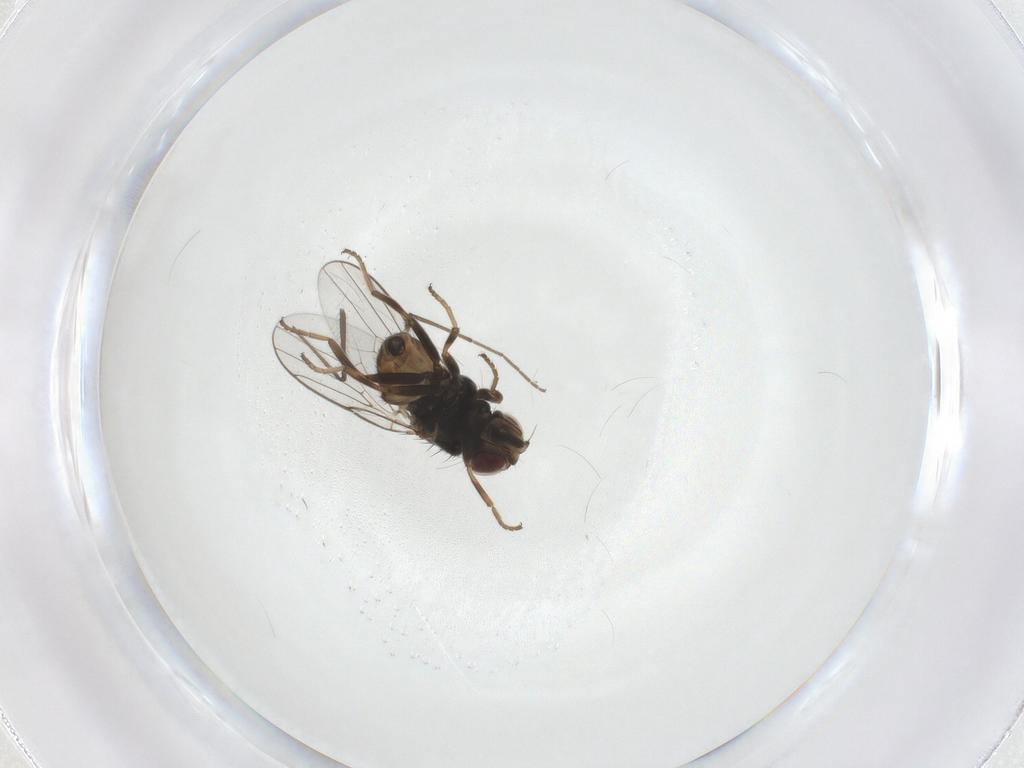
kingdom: Animalia
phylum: Arthropoda
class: Insecta
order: Diptera
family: Chloropidae
